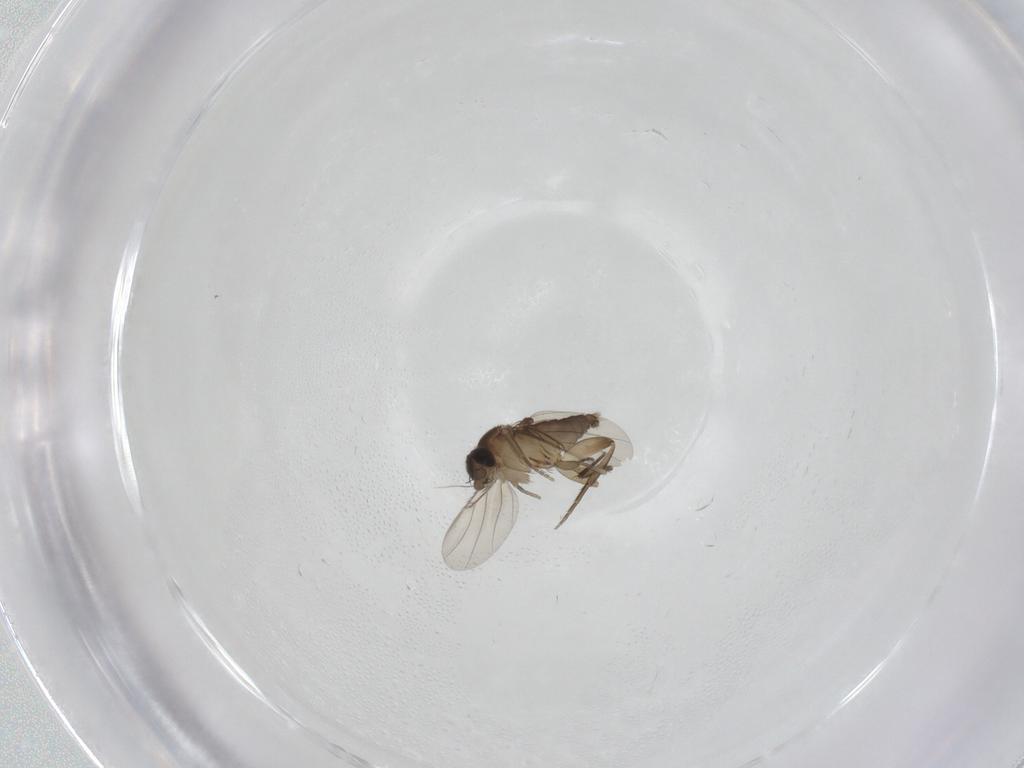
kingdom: Animalia
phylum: Arthropoda
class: Insecta
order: Diptera
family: Phoridae
